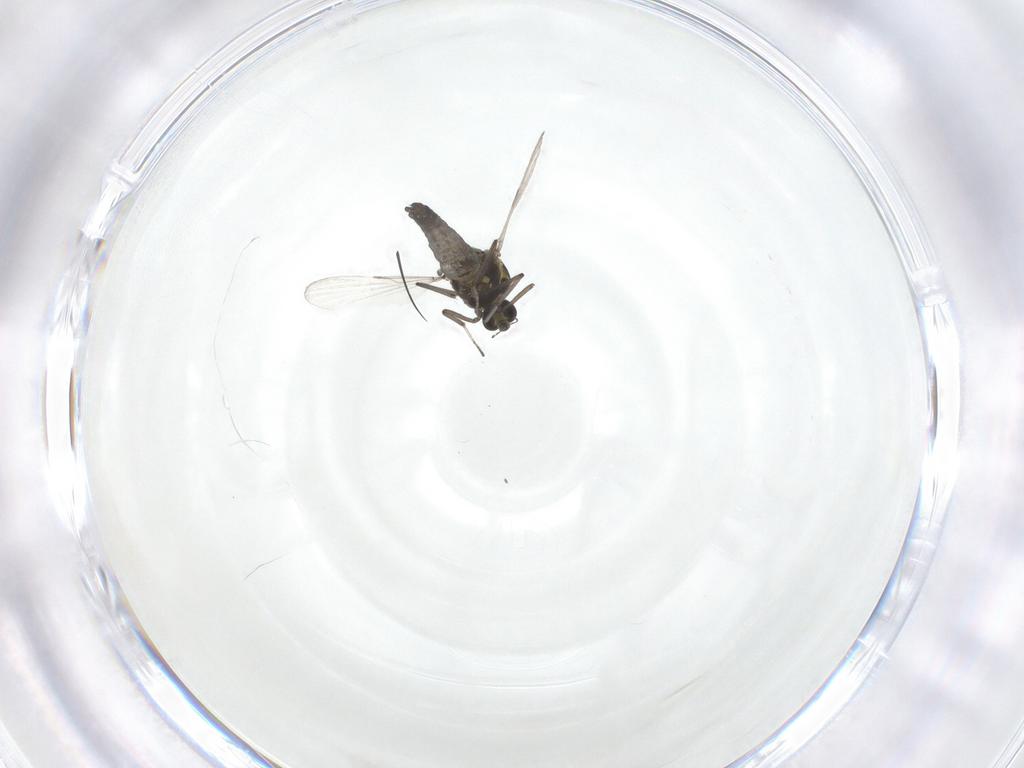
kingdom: Animalia
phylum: Arthropoda
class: Insecta
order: Diptera
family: Ceratopogonidae
